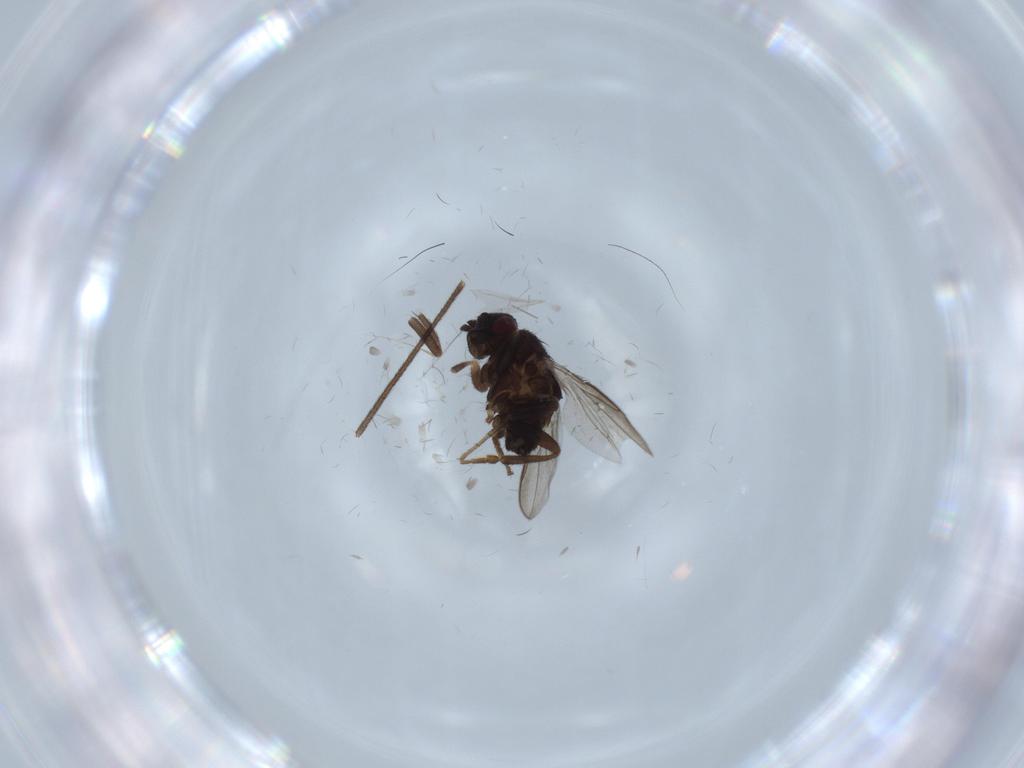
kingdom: Animalia
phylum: Arthropoda
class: Insecta
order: Diptera
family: Sphaeroceridae
